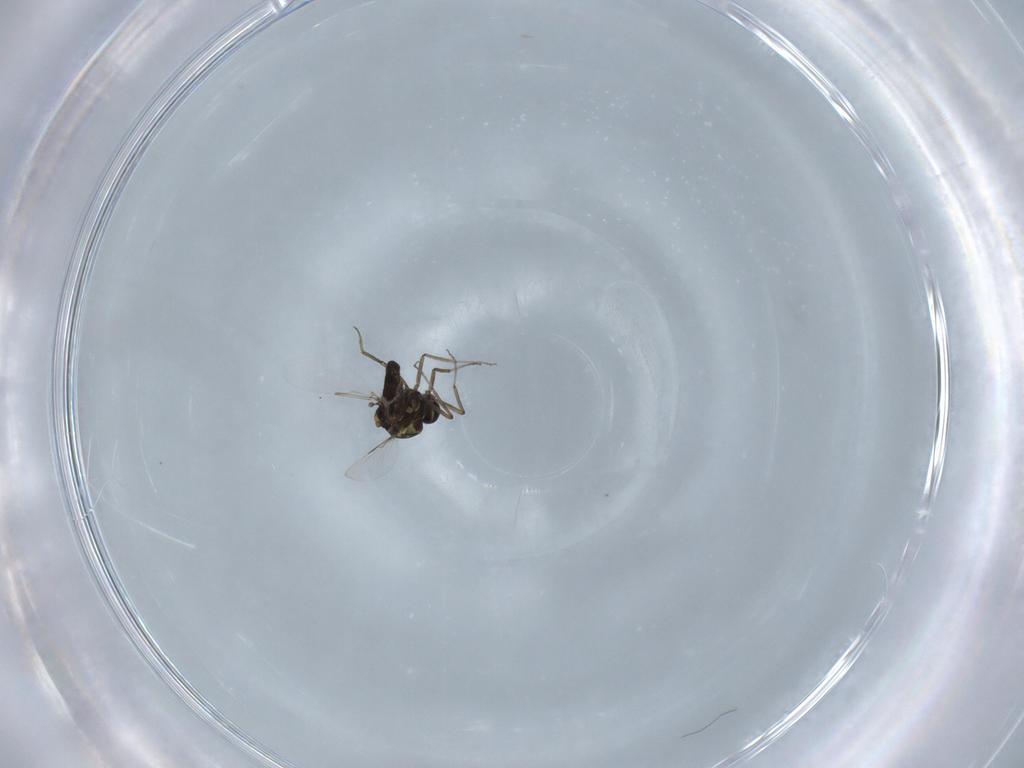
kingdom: Animalia
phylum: Arthropoda
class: Insecta
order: Diptera
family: Ceratopogonidae
